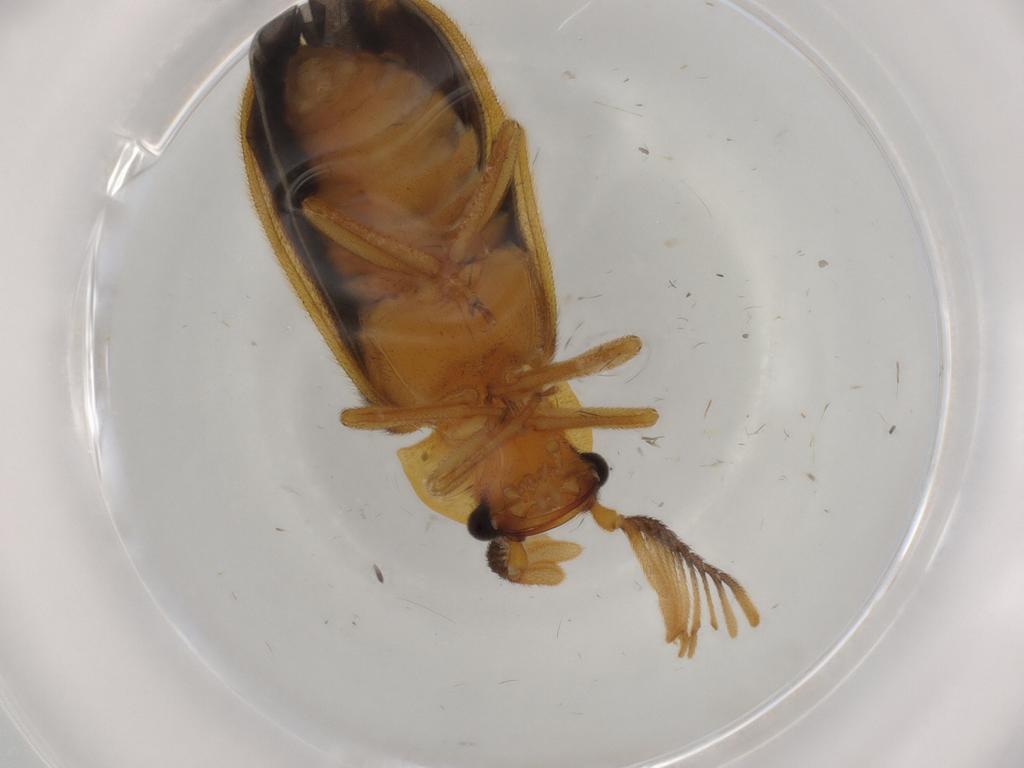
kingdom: Animalia
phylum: Arthropoda
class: Insecta
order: Coleoptera
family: Lampyridae
